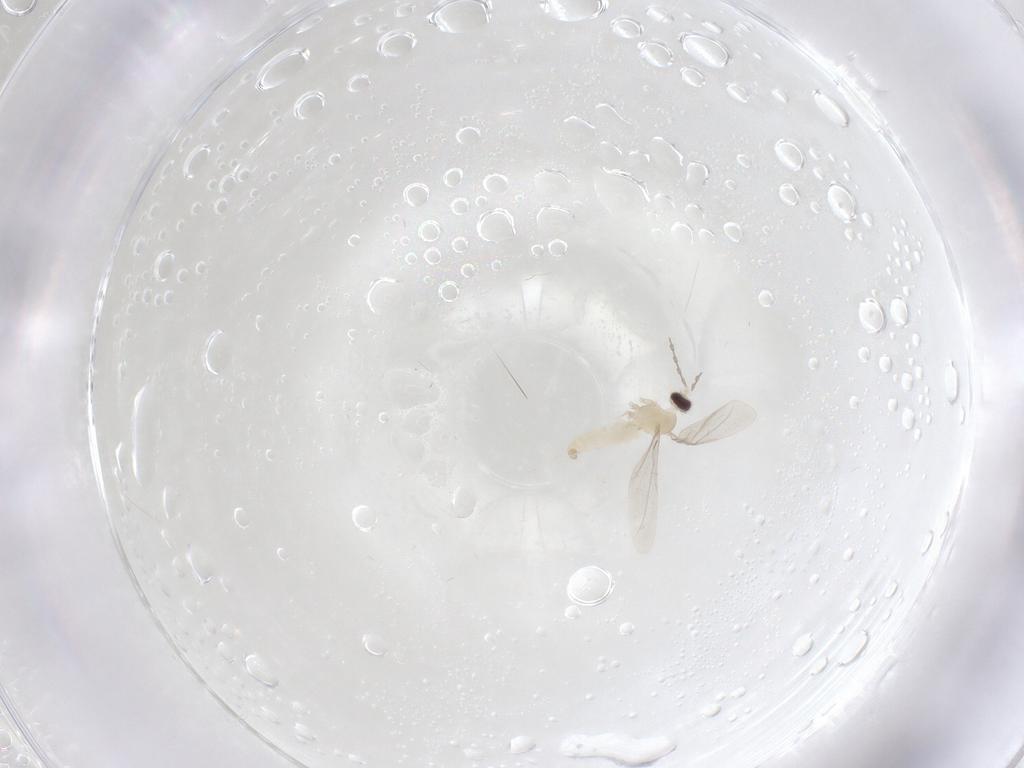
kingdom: Animalia
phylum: Arthropoda
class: Insecta
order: Diptera
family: Cecidomyiidae
